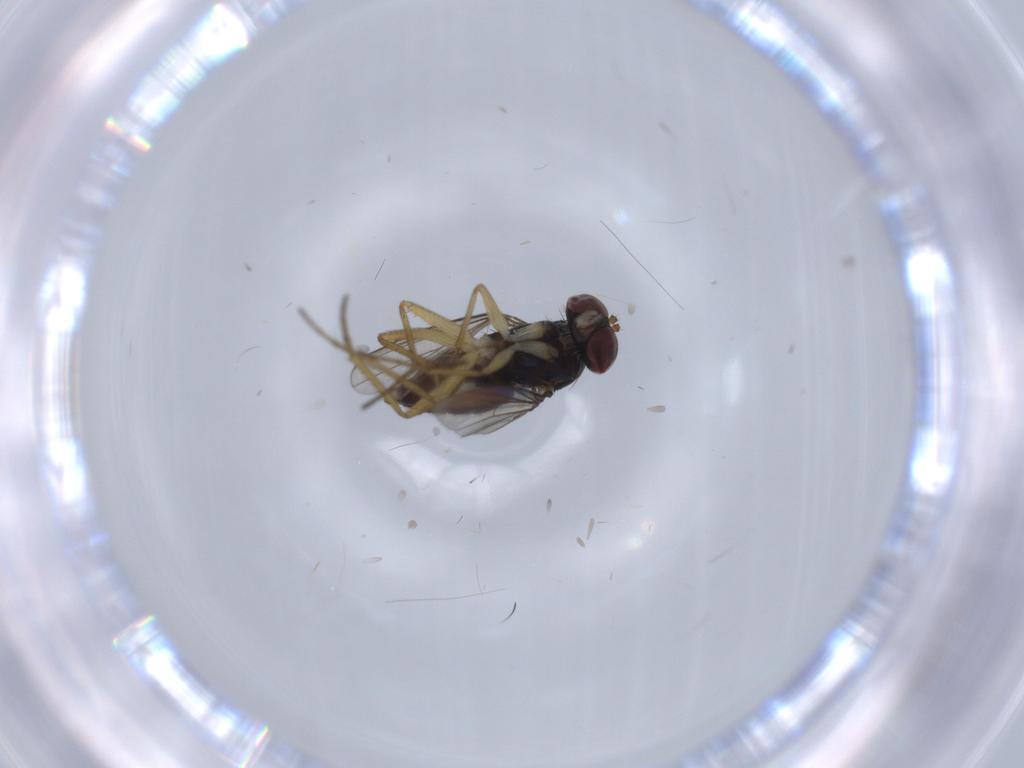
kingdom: Animalia
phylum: Arthropoda
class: Insecta
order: Diptera
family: Dolichopodidae
